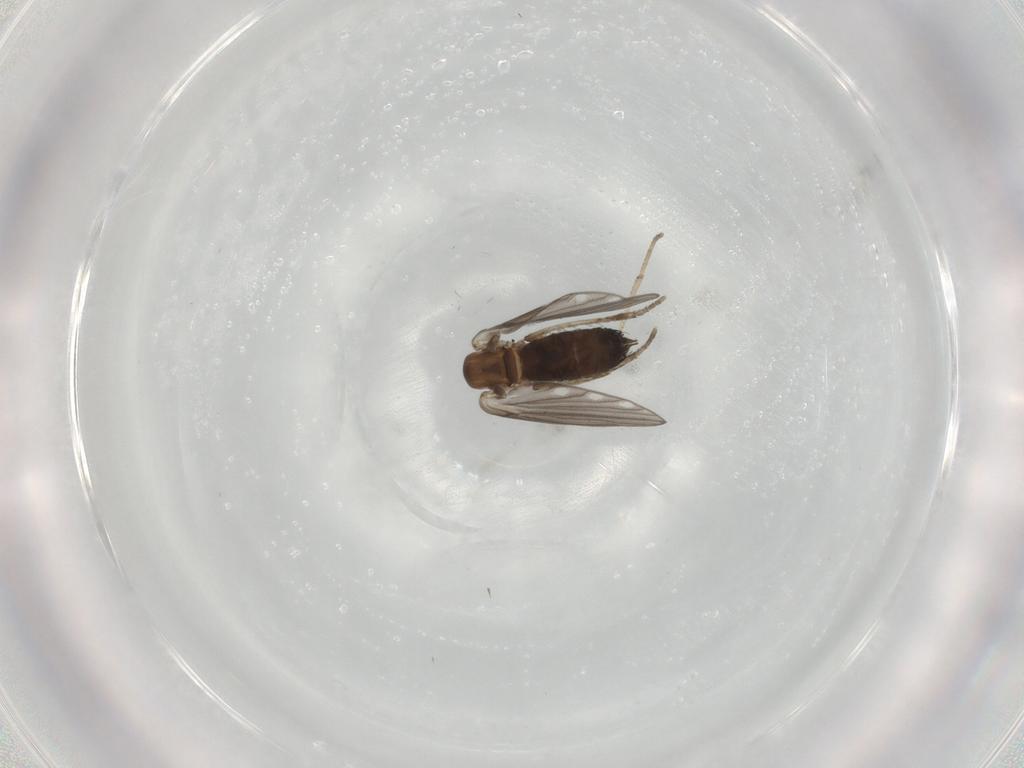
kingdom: Animalia
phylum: Arthropoda
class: Insecta
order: Diptera
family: Psychodidae
